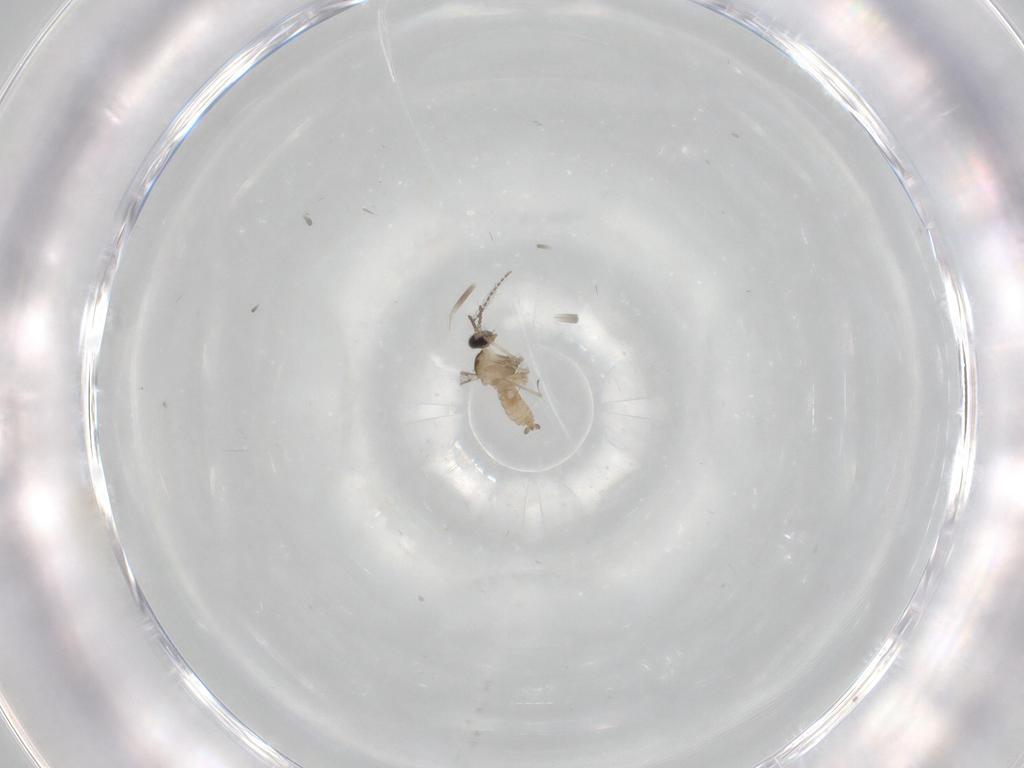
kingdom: Animalia
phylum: Arthropoda
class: Insecta
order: Diptera
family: Cecidomyiidae
